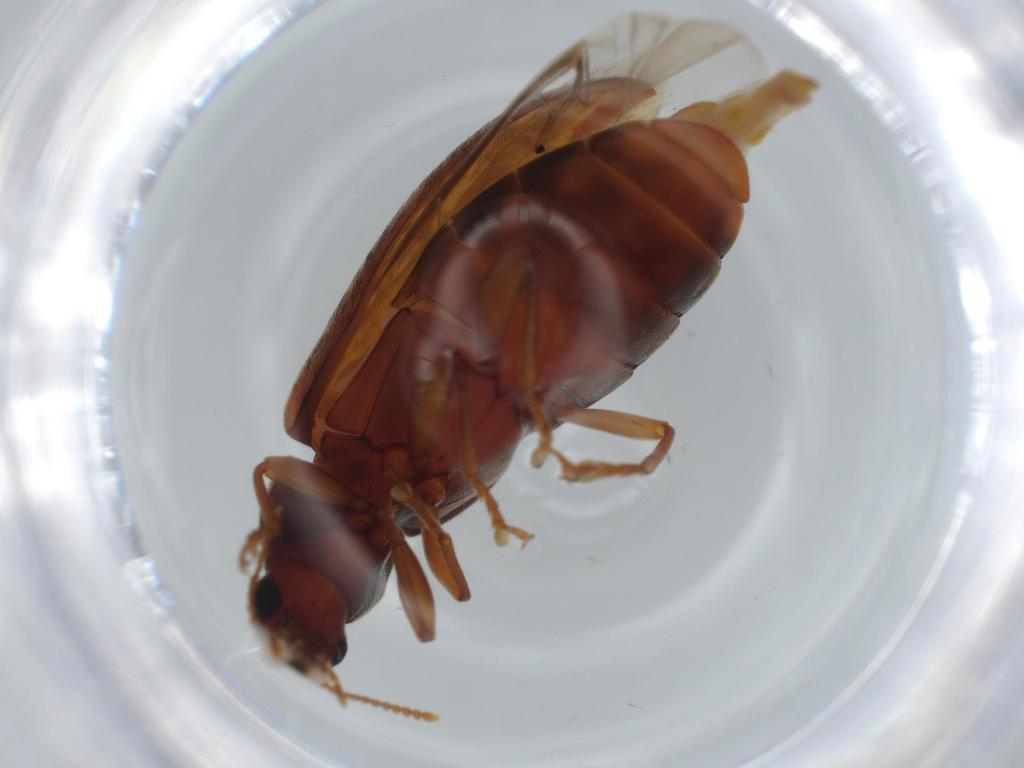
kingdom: Animalia
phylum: Arthropoda
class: Insecta
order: Coleoptera
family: Mycteridae
